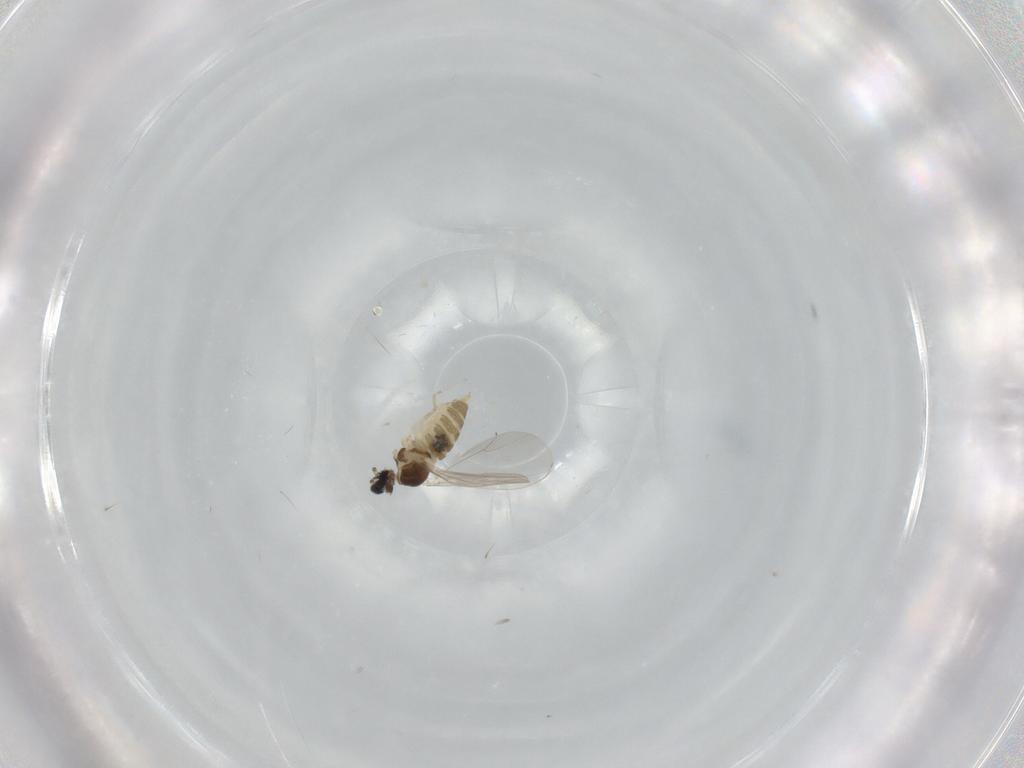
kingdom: Animalia
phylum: Arthropoda
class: Insecta
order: Diptera
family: Cecidomyiidae
